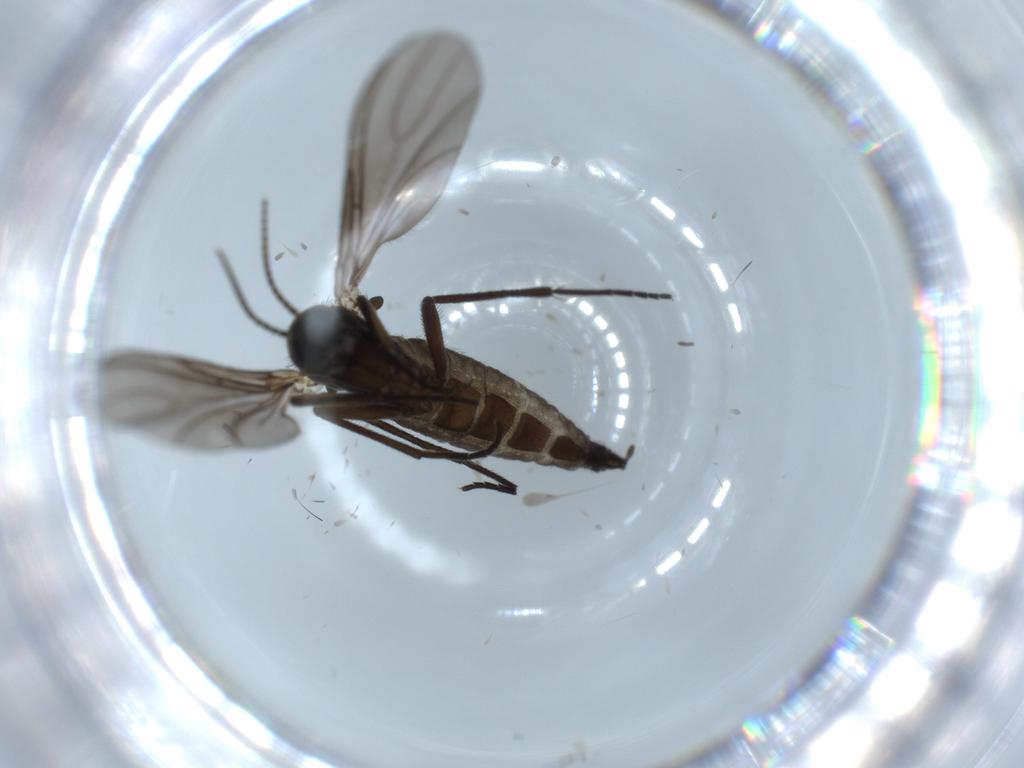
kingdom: Animalia
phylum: Arthropoda
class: Insecta
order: Diptera
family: Sciaridae
